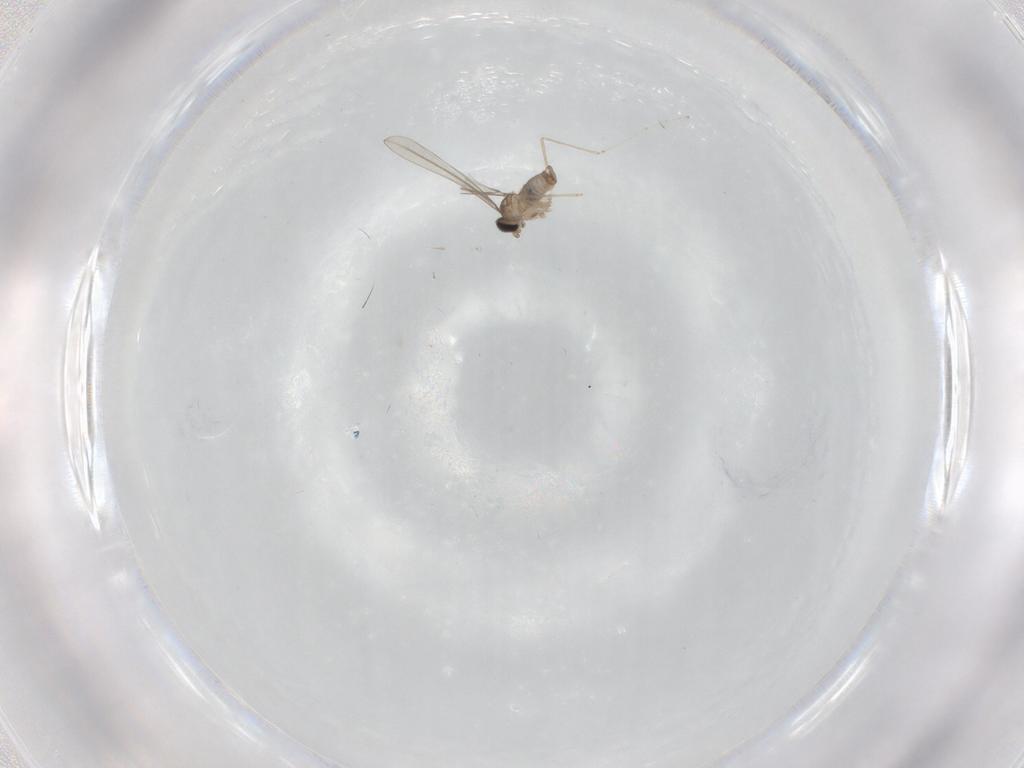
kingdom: Animalia
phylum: Arthropoda
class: Insecta
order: Diptera
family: Cecidomyiidae
